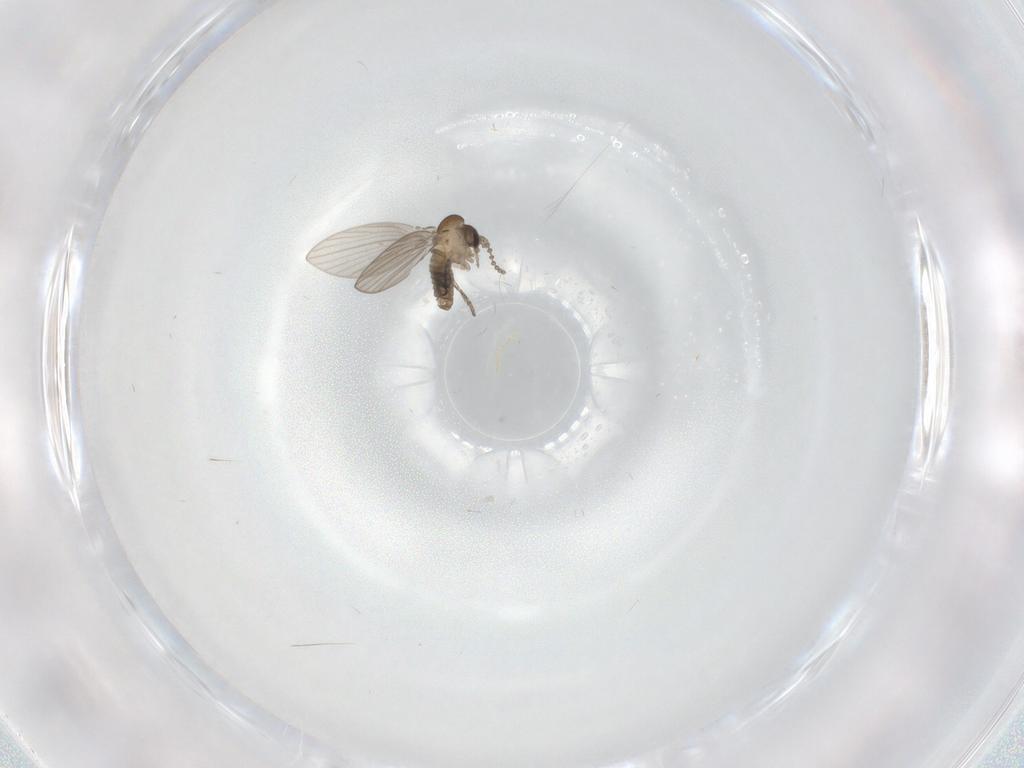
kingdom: Animalia
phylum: Arthropoda
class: Insecta
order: Diptera
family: Psychodidae
